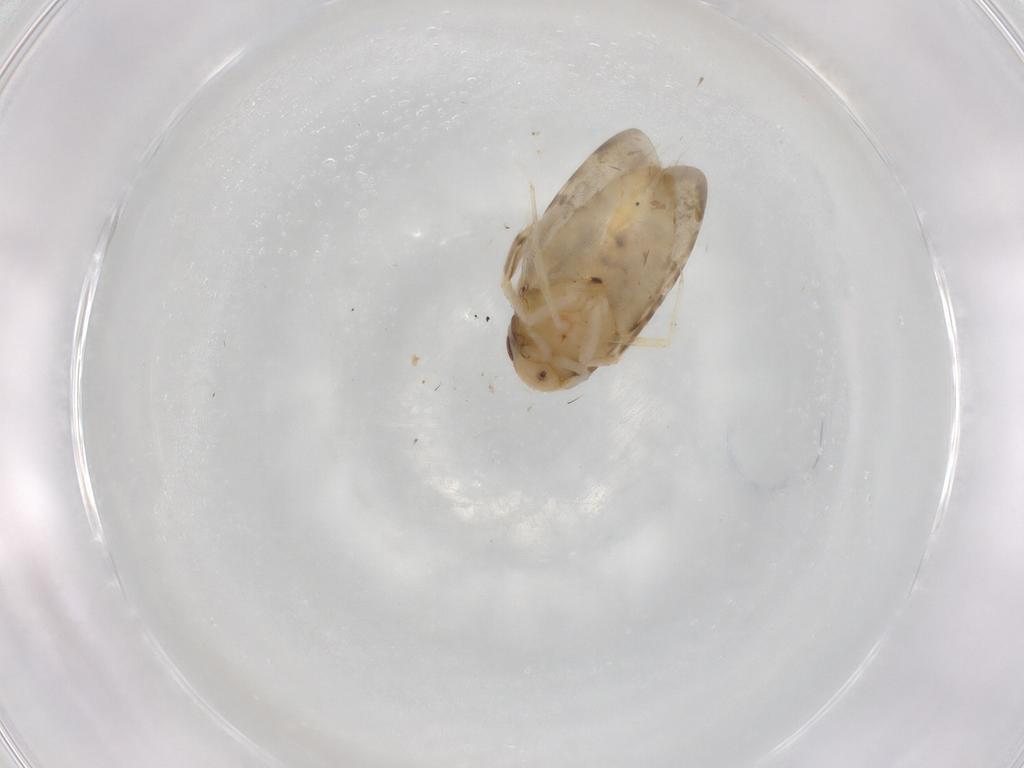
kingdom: Animalia
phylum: Arthropoda
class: Insecta
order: Hemiptera
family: Corixidae
